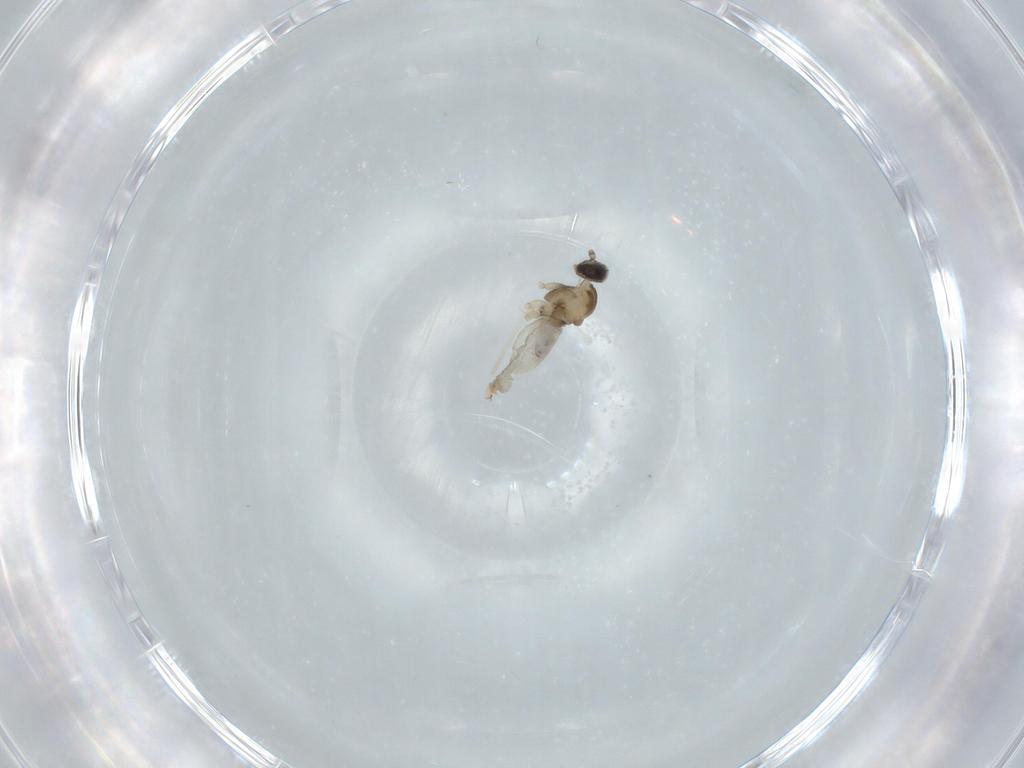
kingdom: Animalia
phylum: Arthropoda
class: Insecta
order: Diptera
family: Cecidomyiidae
